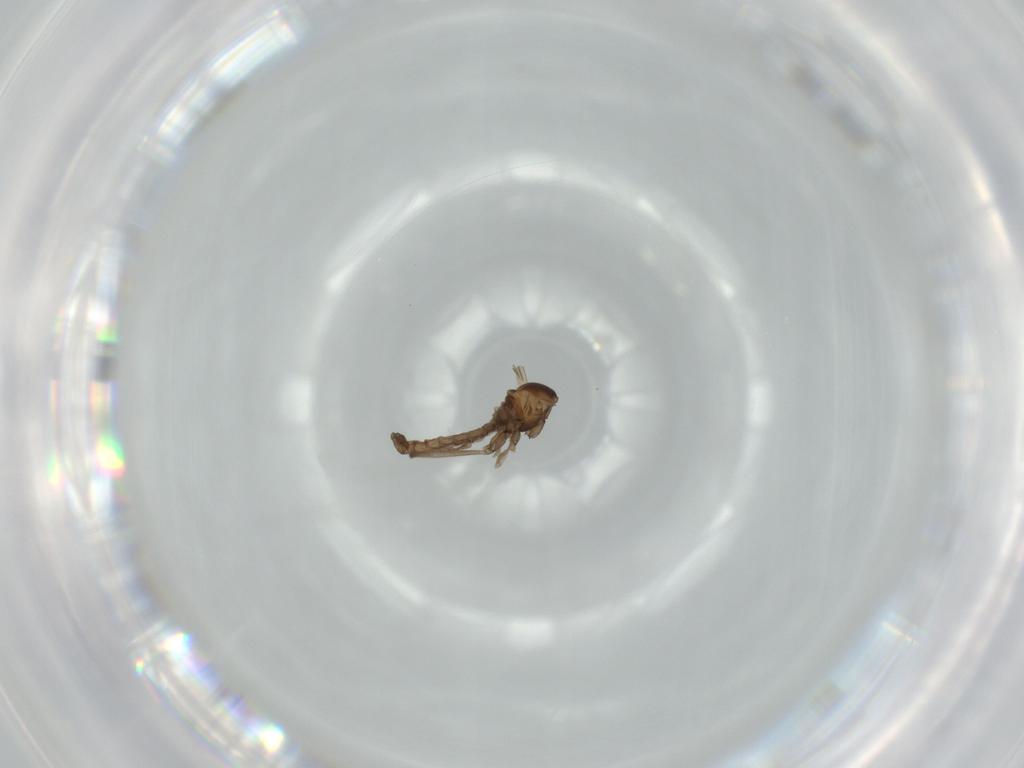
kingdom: Animalia
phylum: Arthropoda
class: Insecta
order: Diptera
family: Cecidomyiidae
